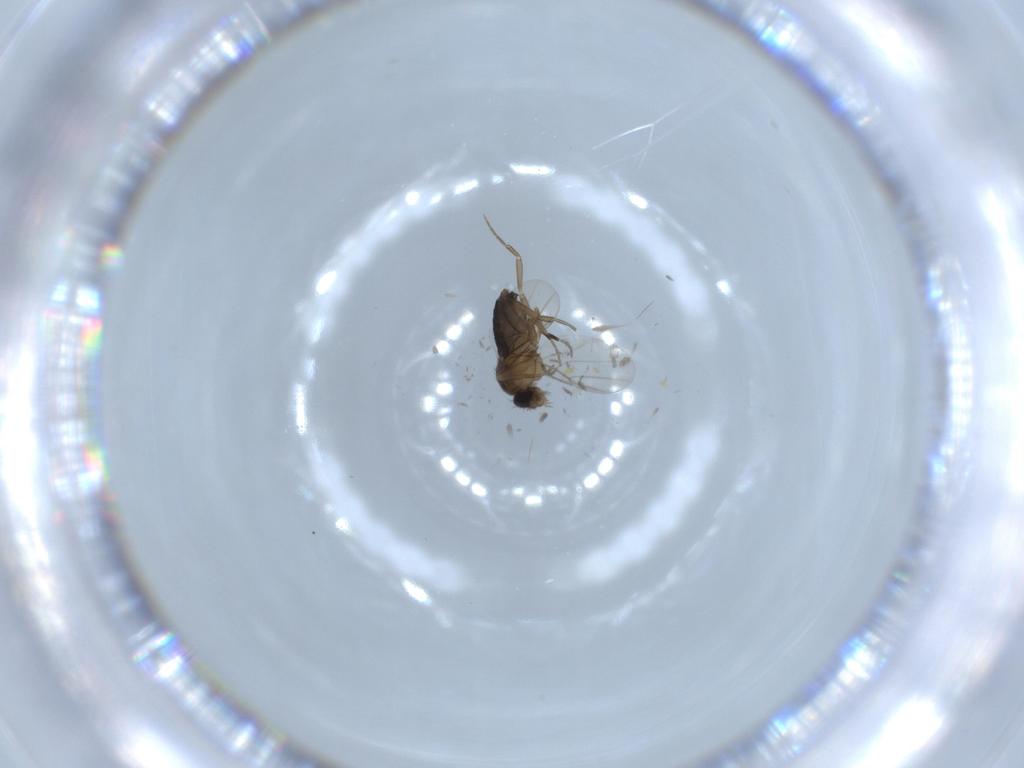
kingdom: Animalia
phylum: Arthropoda
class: Insecta
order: Diptera
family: Phoridae
